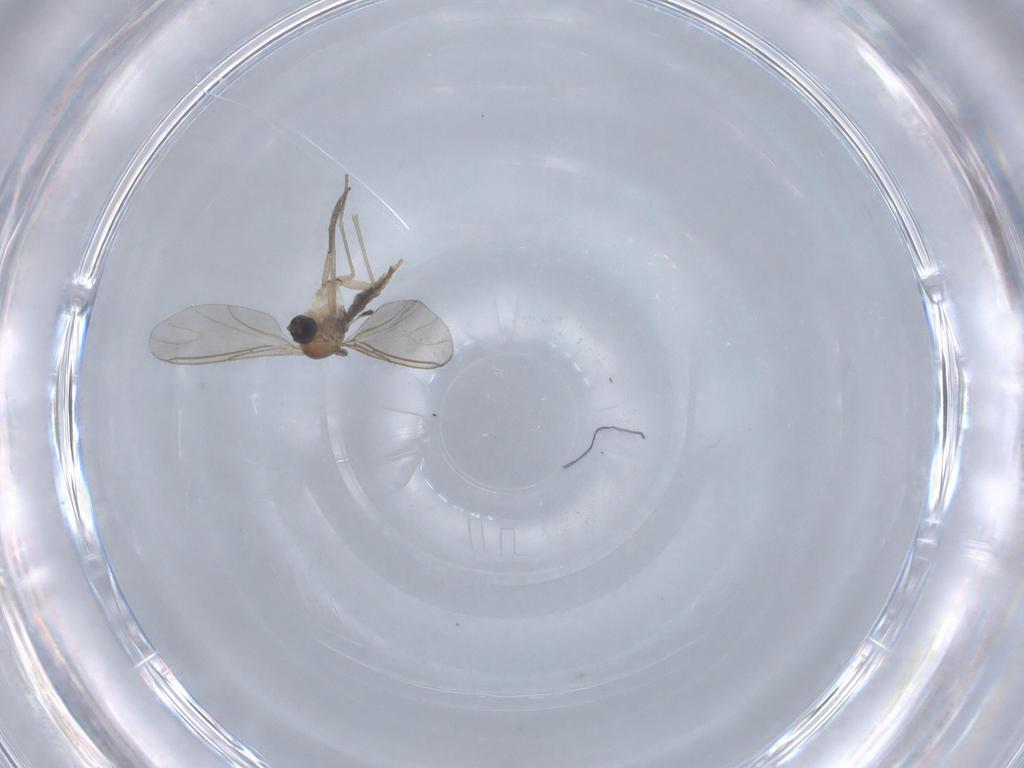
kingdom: Animalia
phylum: Arthropoda
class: Insecta
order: Diptera
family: Sciaridae
